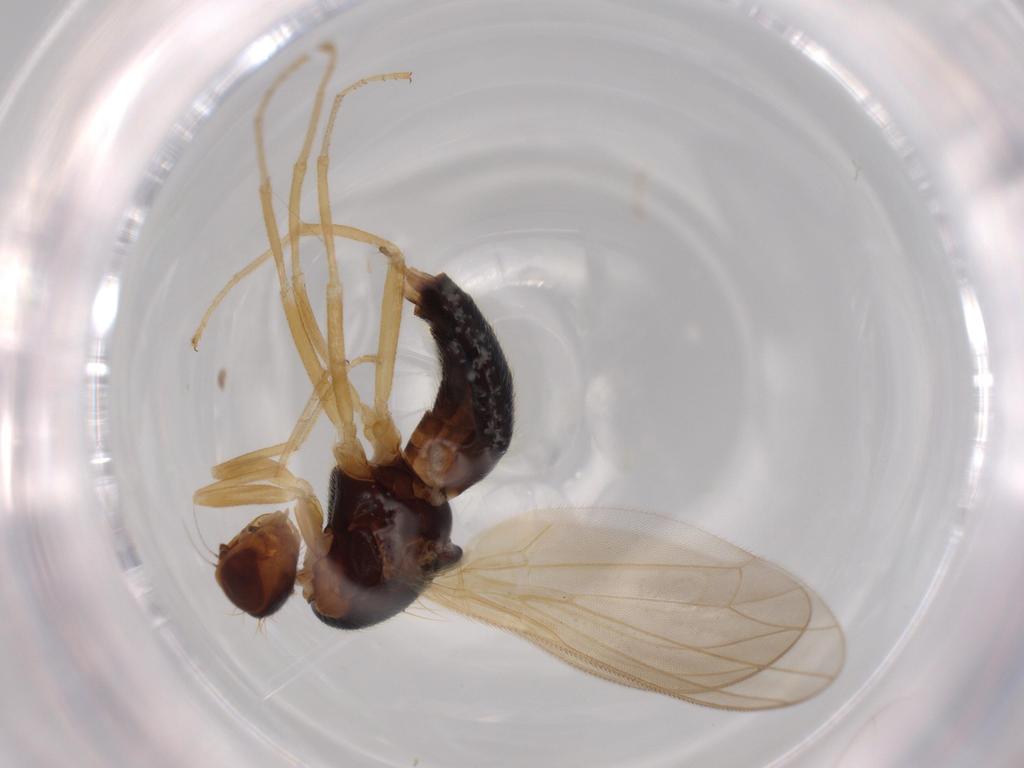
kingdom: Animalia
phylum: Arthropoda
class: Insecta
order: Diptera
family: Psilidae
